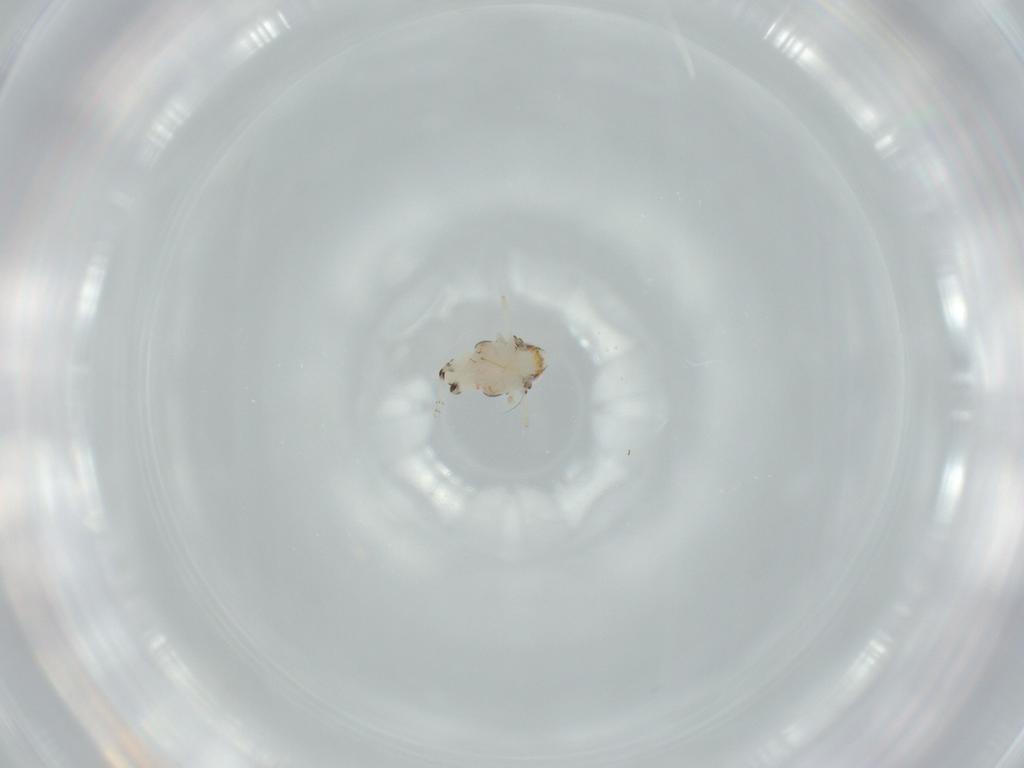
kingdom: Animalia
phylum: Arthropoda
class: Insecta
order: Hemiptera
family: Nogodinidae
